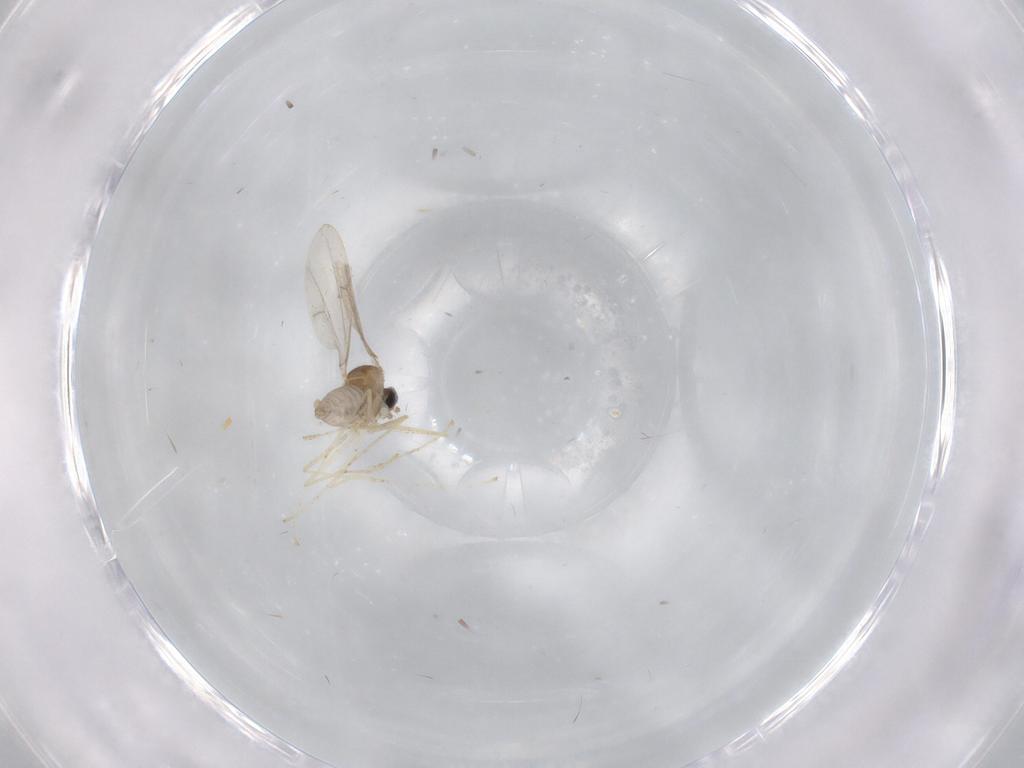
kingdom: Animalia
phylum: Arthropoda
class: Insecta
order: Diptera
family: Cecidomyiidae
